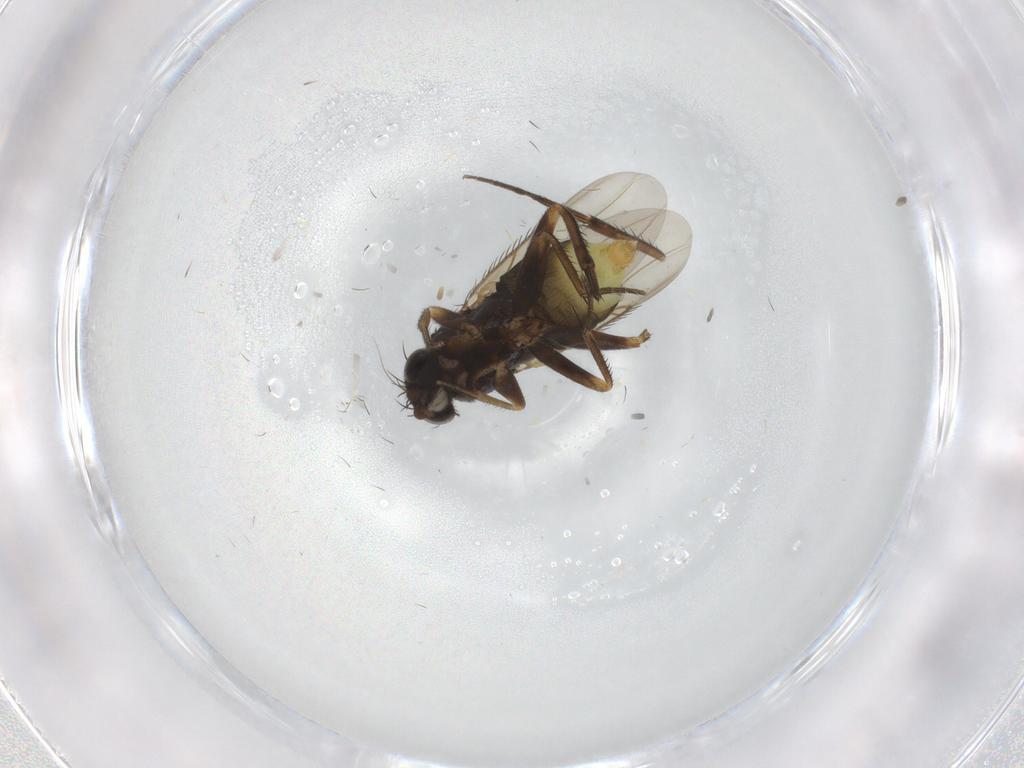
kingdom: Animalia
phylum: Arthropoda
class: Insecta
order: Diptera
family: Phoridae
